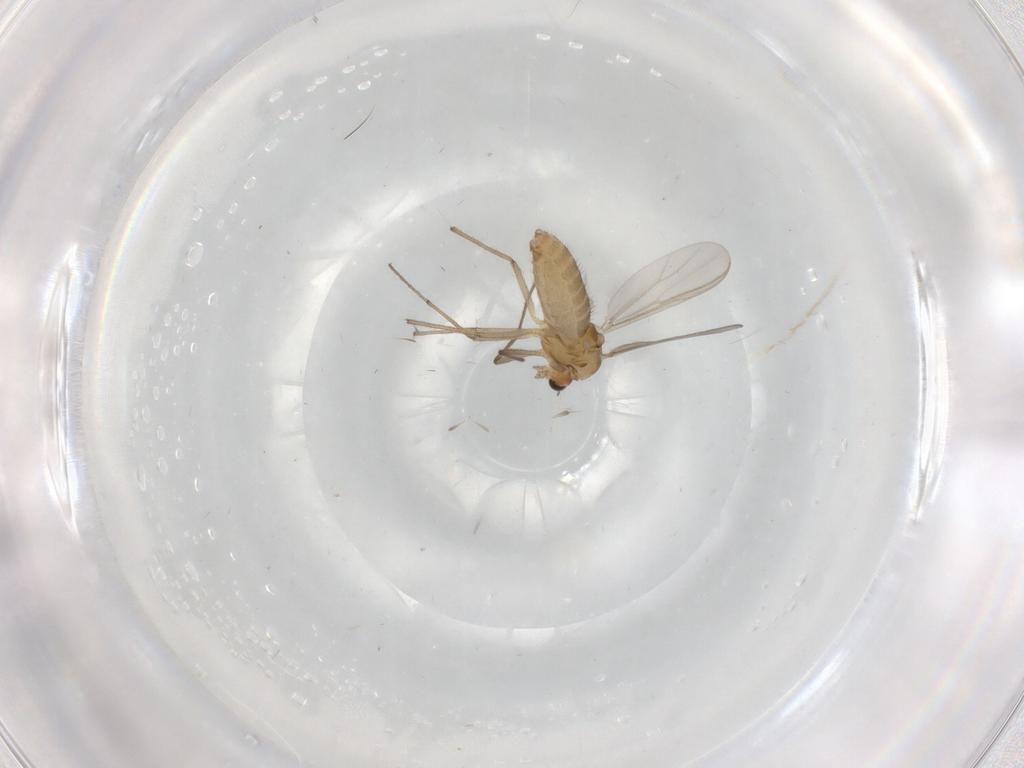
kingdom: Animalia
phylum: Arthropoda
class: Insecta
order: Diptera
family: Chironomidae
